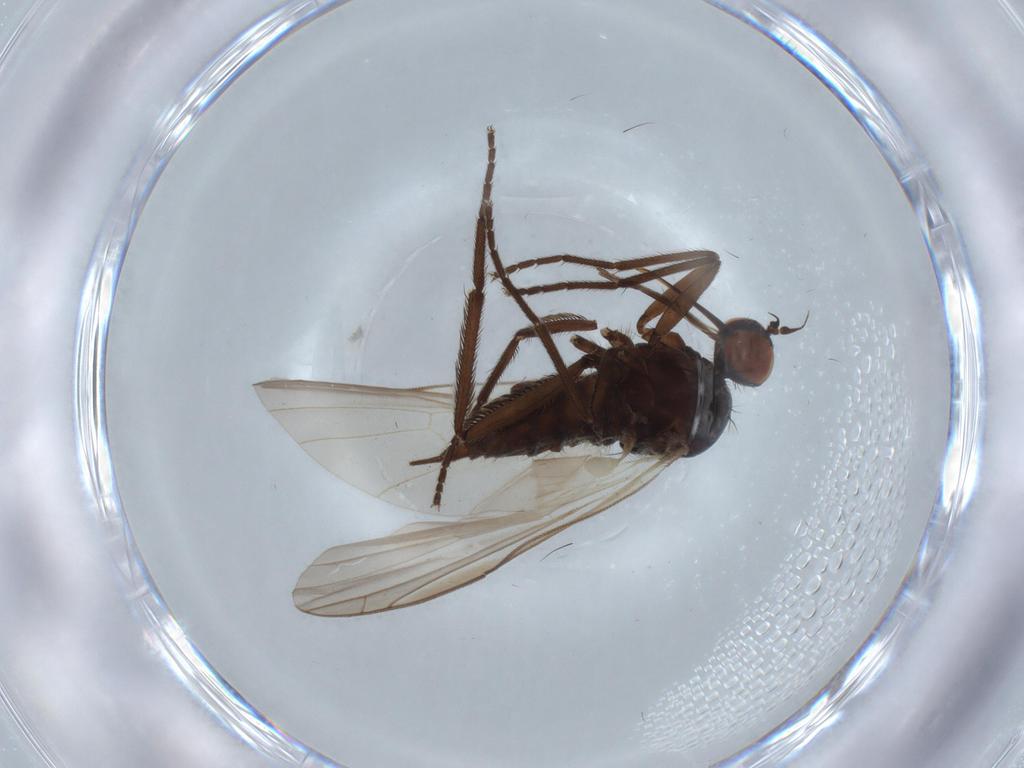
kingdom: Animalia
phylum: Arthropoda
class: Insecta
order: Diptera
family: Empididae
